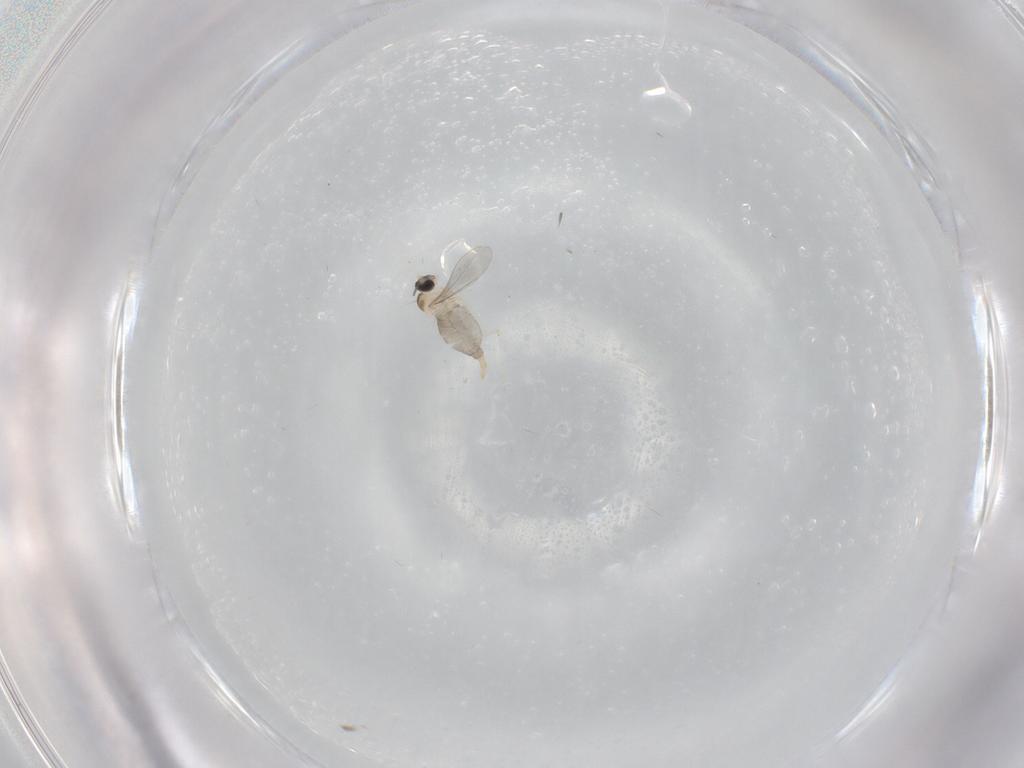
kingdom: Animalia
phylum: Arthropoda
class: Insecta
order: Diptera
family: Cecidomyiidae
